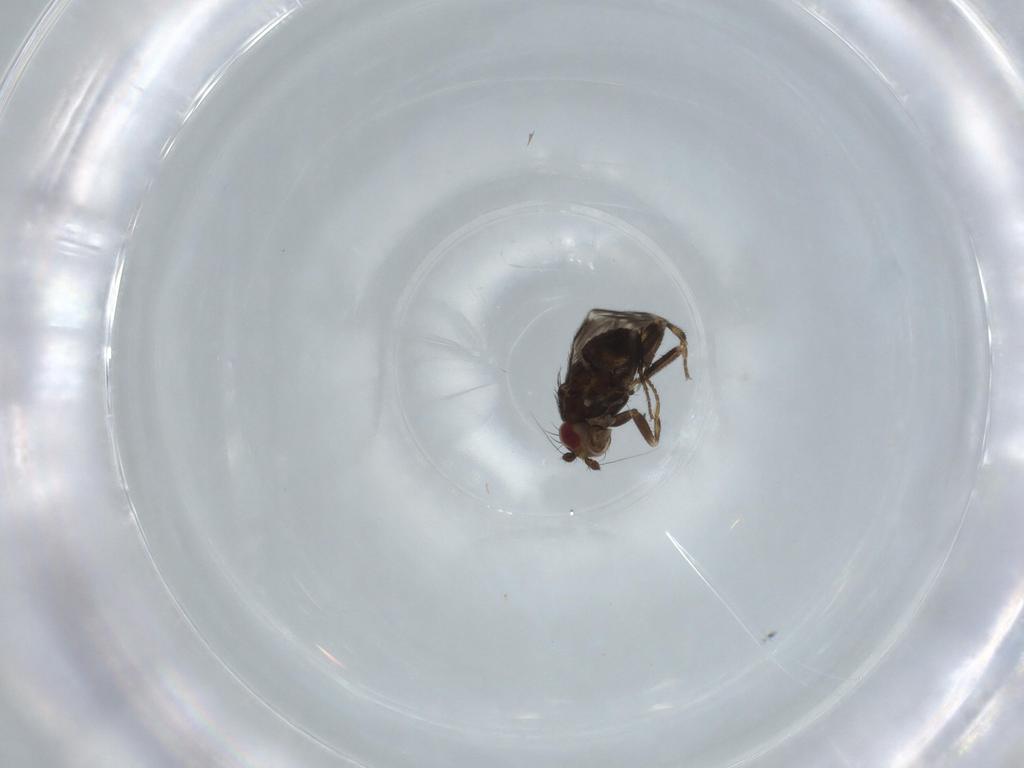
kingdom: Animalia
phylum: Arthropoda
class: Insecta
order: Diptera
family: Sphaeroceridae
